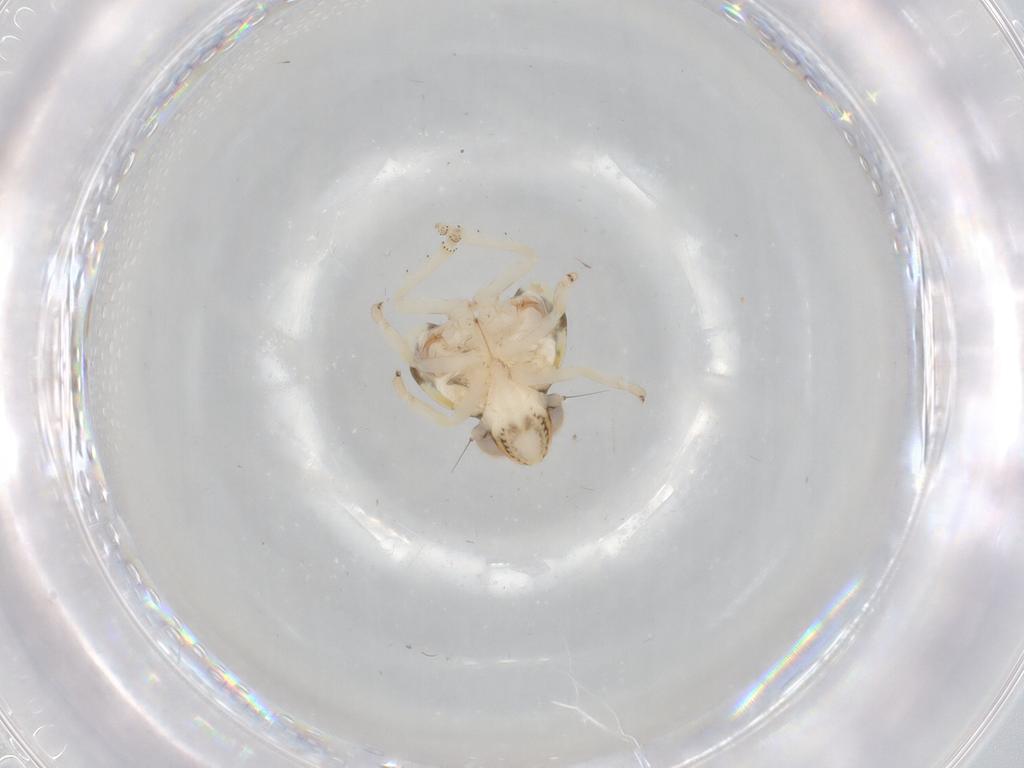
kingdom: Animalia
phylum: Arthropoda
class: Insecta
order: Hemiptera
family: Nogodinidae
